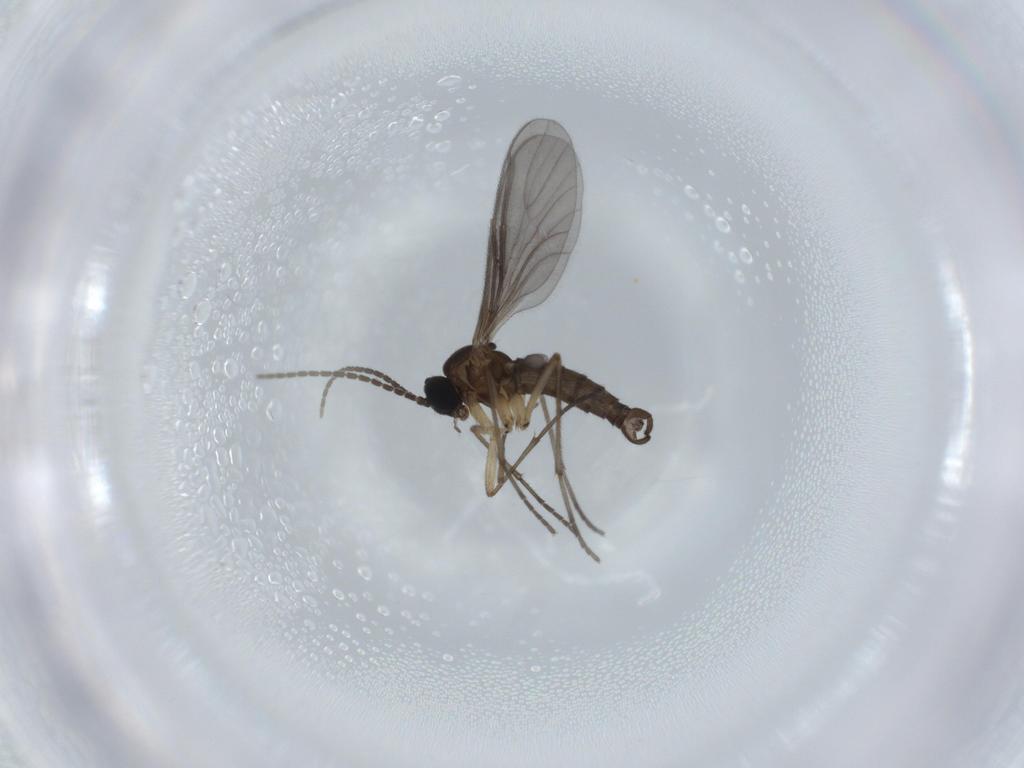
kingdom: Animalia
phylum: Arthropoda
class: Insecta
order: Diptera
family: Sciaridae
